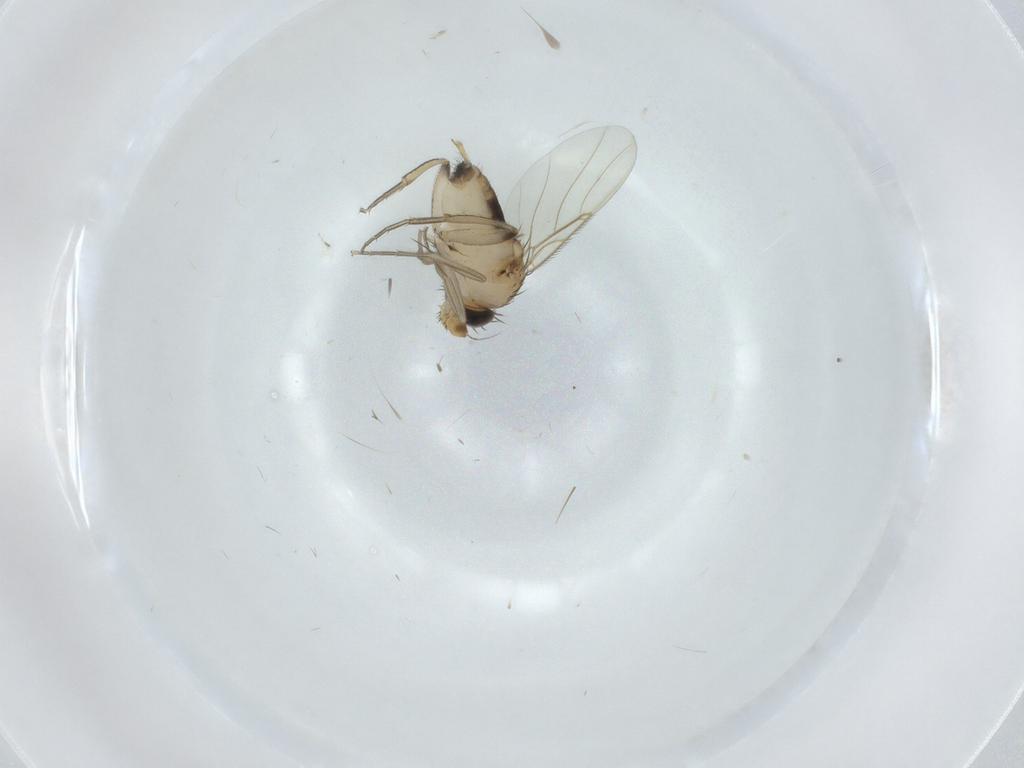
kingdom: Animalia
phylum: Arthropoda
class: Insecta
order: Diptera
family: Phoridae
